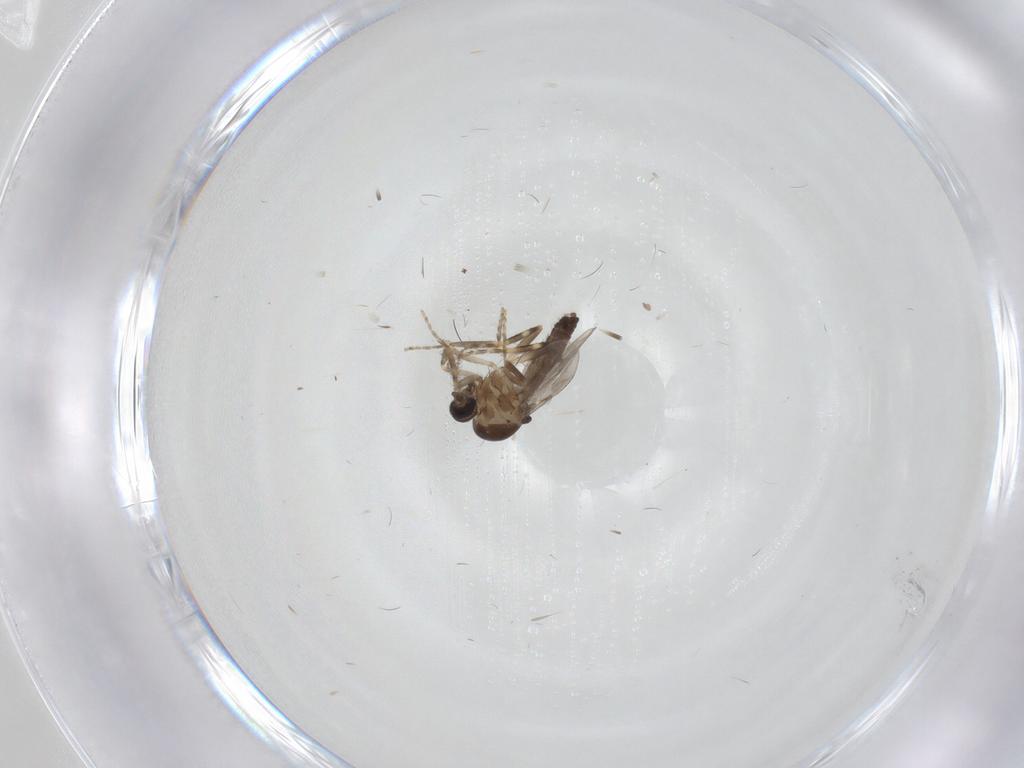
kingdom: Animalia
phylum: Arthropoda
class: Insecta
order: Diptera
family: Ceratopogonidae
